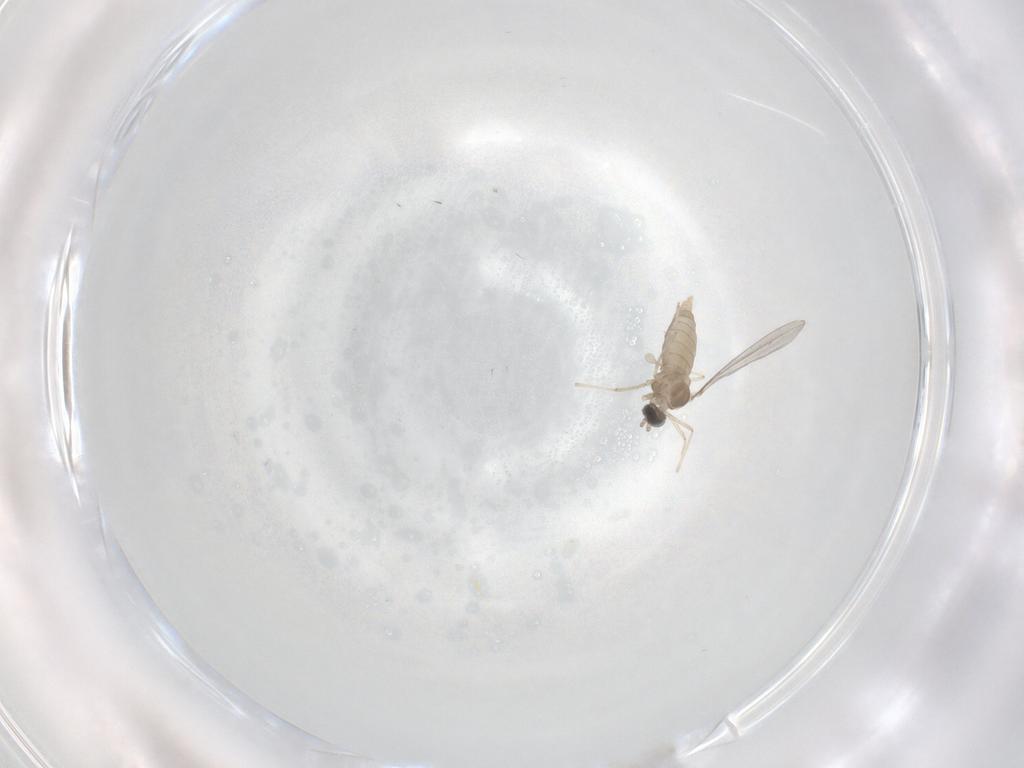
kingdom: Animalia
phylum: Arthropoda
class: Insecta
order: Diptera
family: Cecidomyiidae
